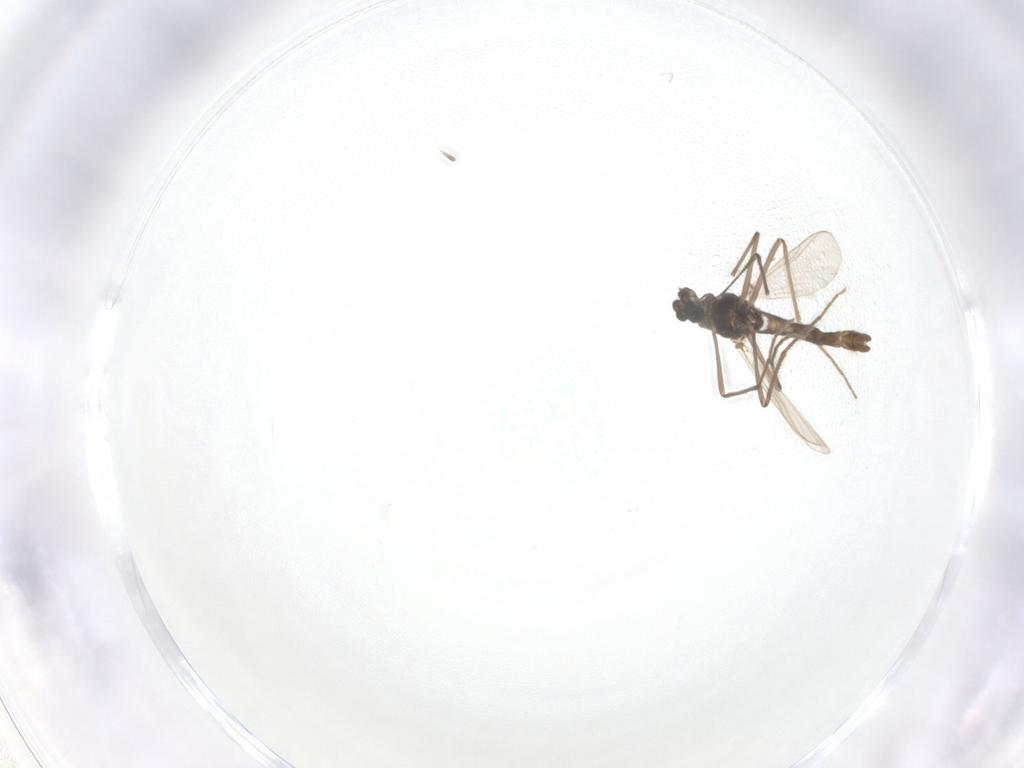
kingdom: Animalia
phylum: Arthropoda
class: Insecta
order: Diptera
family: Chironomidae
